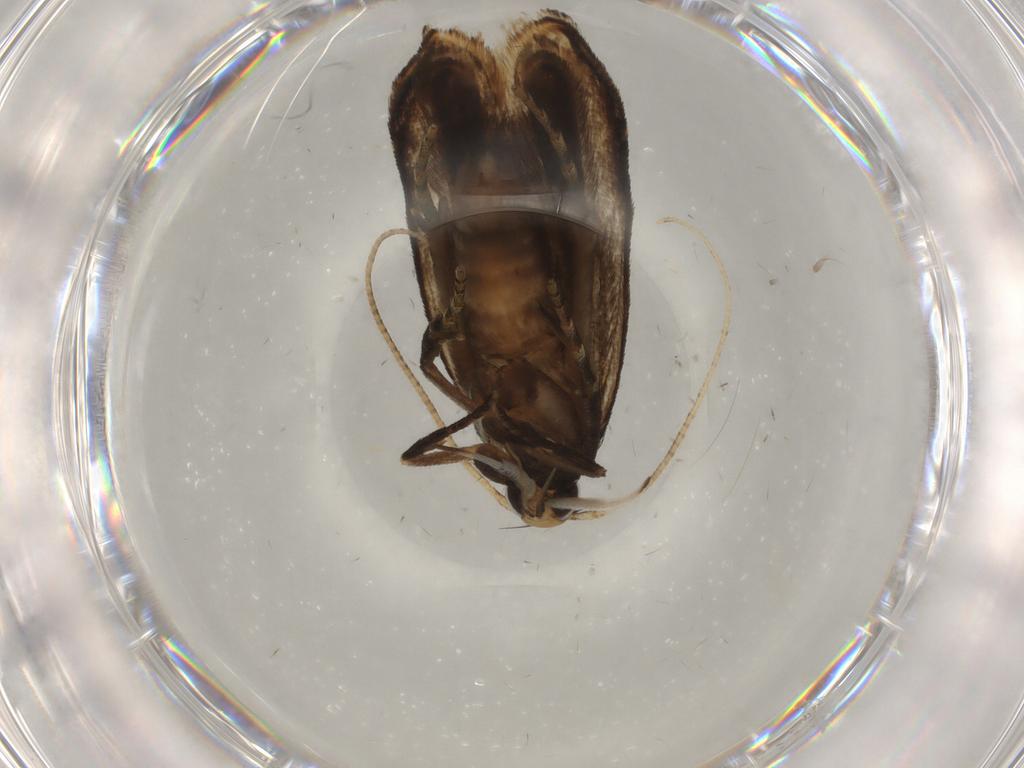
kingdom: Animalia
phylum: Arthropoda
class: Insecta
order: Lepidoptera
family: Gelechiidae
